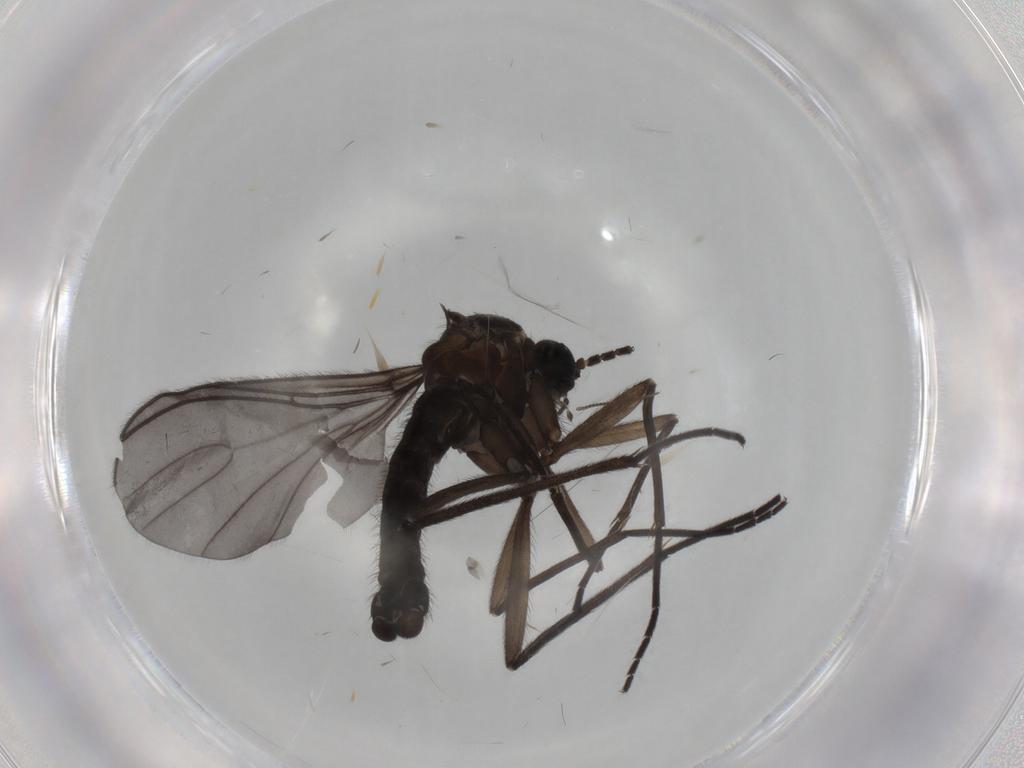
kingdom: Animalia
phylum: Arthropoda
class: Insecta
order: Diptera
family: Sciaridae
